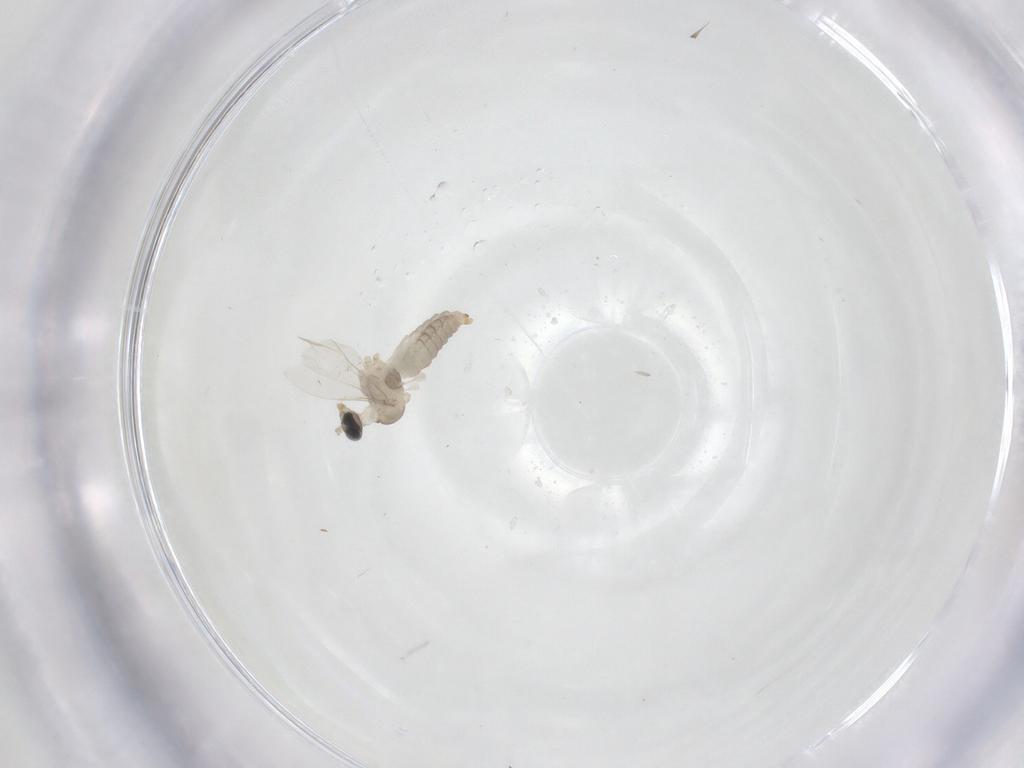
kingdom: Animalia
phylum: Arthropoda
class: Insecta
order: Diptera
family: Cecidomyiidae
